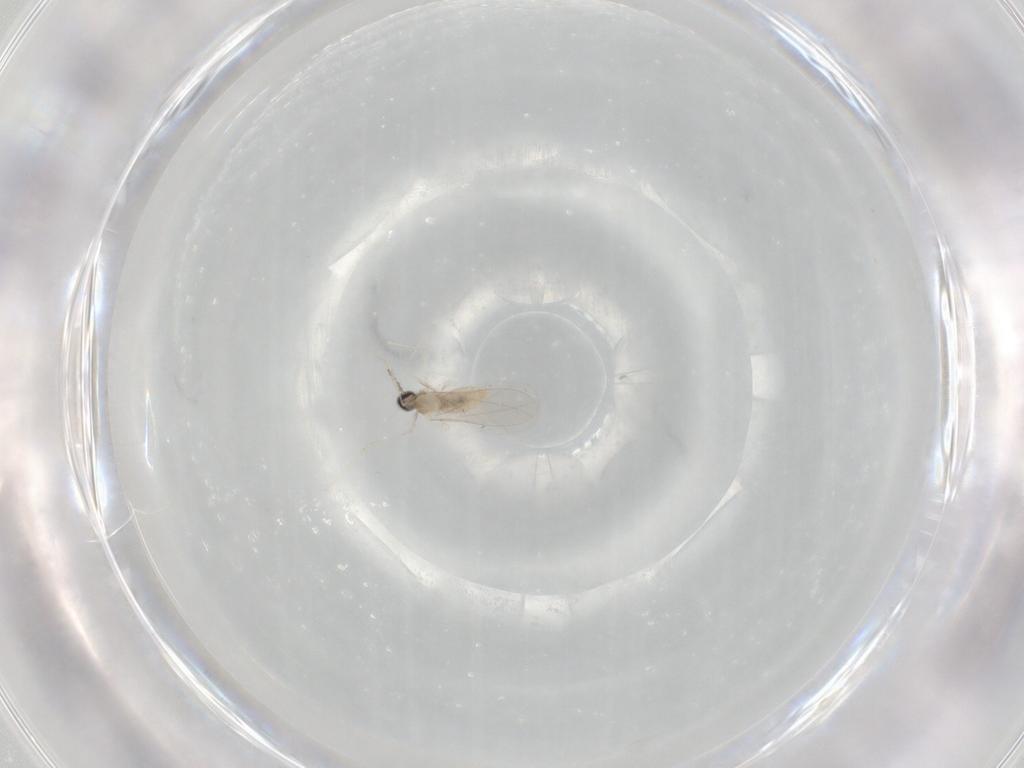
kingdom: Animalia
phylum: Arthropoda
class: Insecta
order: Diptera
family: Cecidomyiidae
